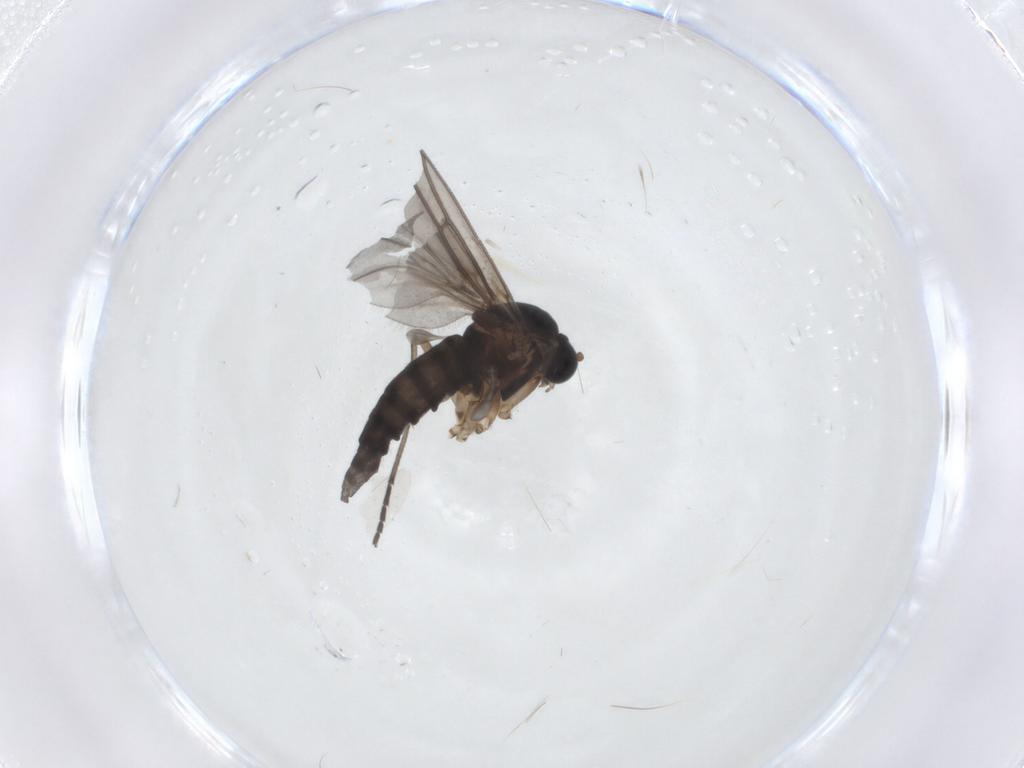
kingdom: Animalia
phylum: Arthropoda
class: Insecta
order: Diptera
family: Sciaridae
